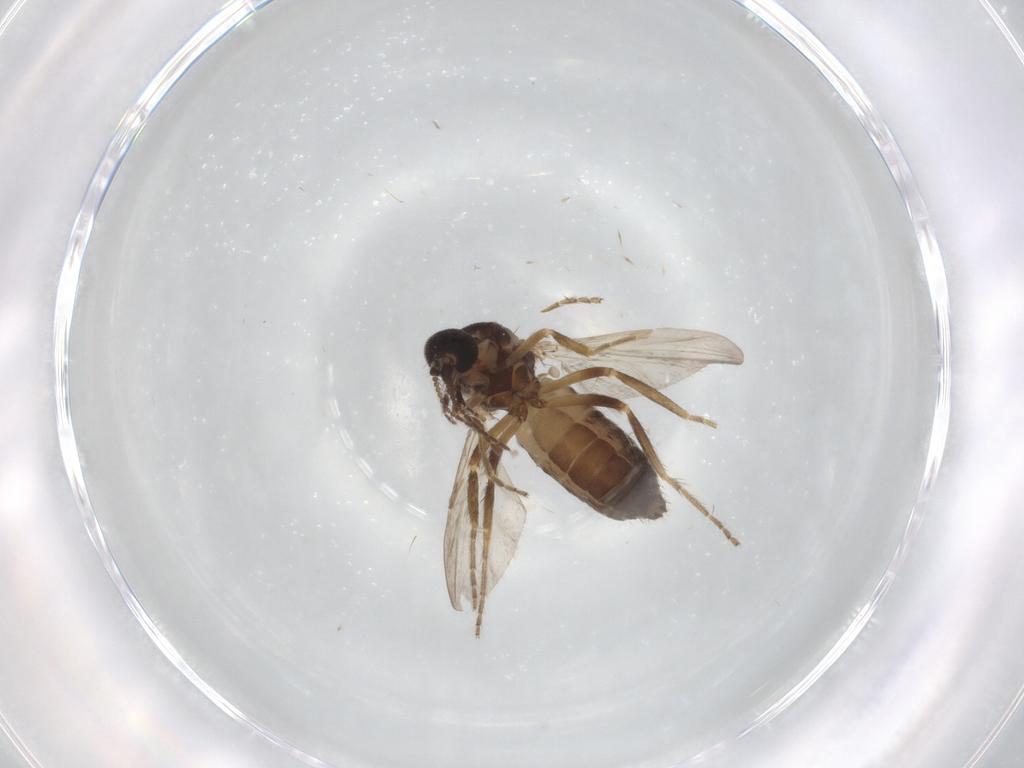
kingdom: Animalia
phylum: Arthropoda
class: Insecta
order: Diptera
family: Ceratopogonidae
